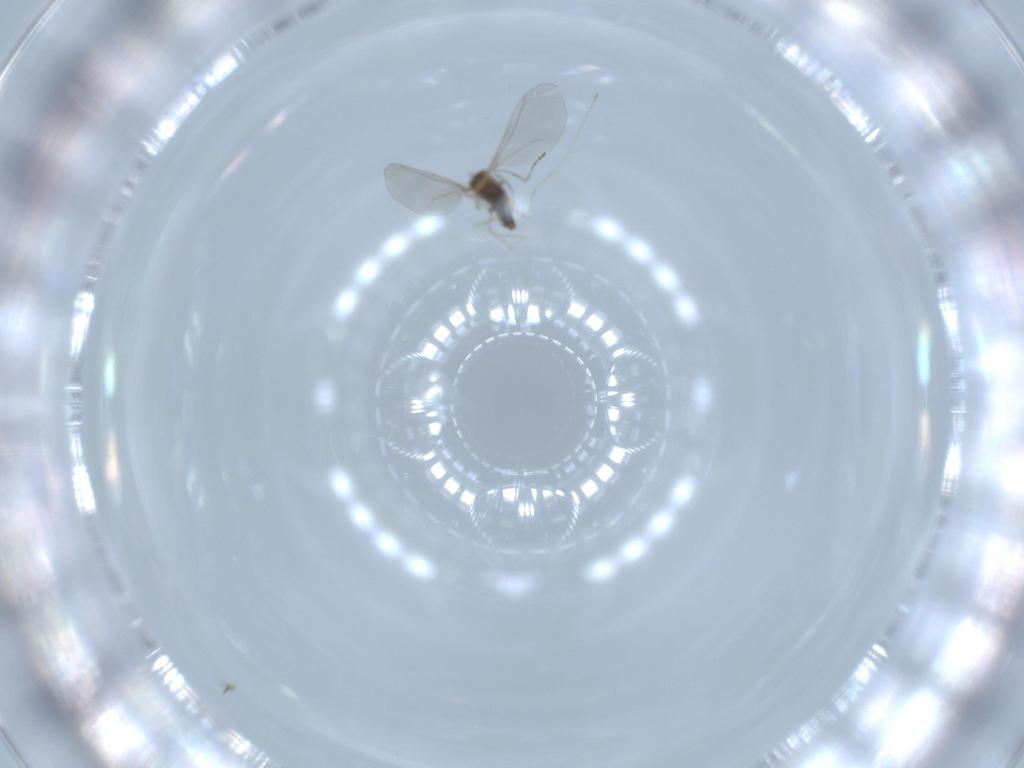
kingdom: Animalia
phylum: Arthropoda
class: Insecta
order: Diptera
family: Cecidomyiidae
